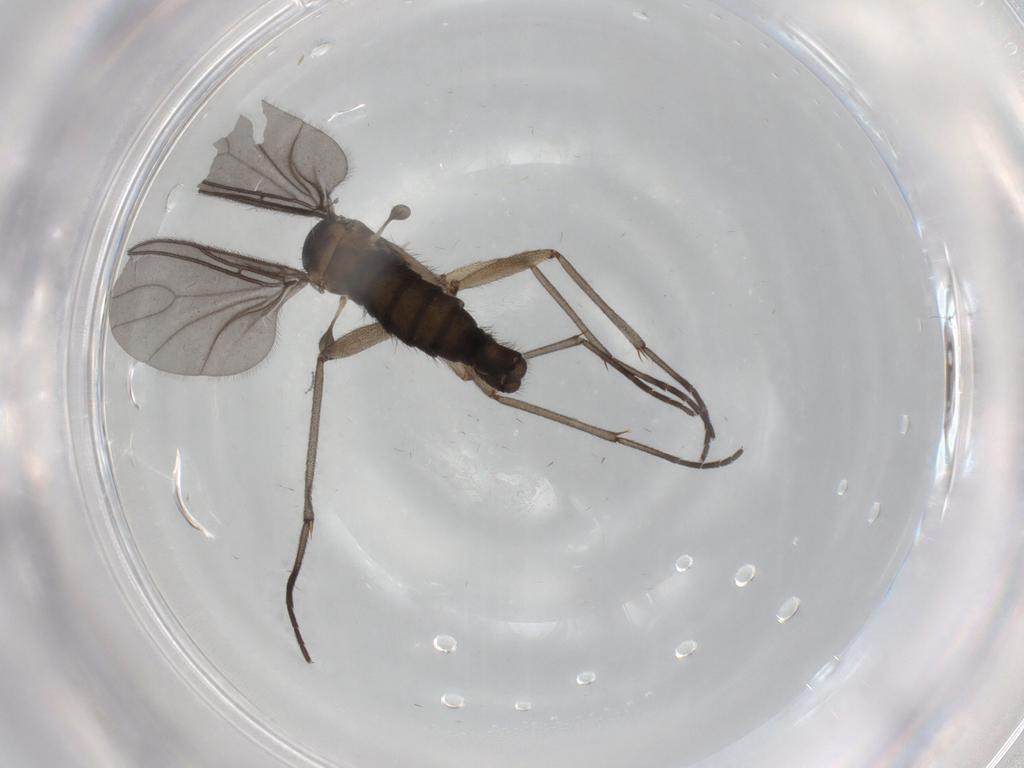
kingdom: Animalia
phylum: Arthropoda
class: Insecta
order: Diptera
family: Sciaridae
